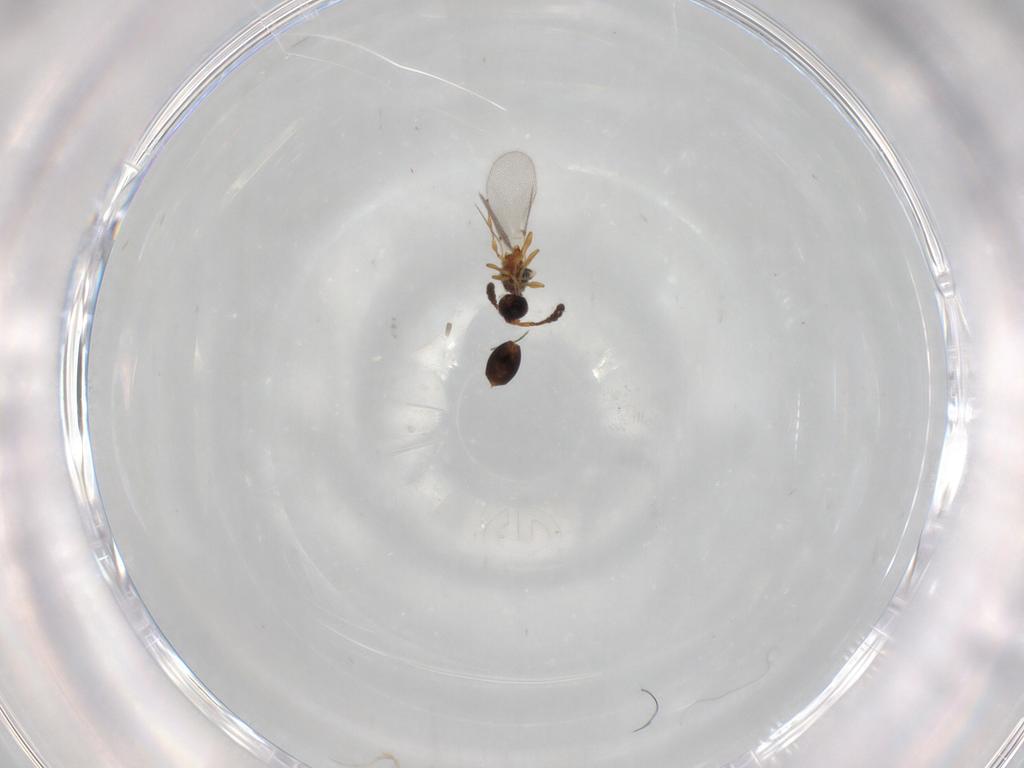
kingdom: Animalia
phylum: Arthropoda
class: Insecta
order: Hymenoptera
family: Diapriidae
